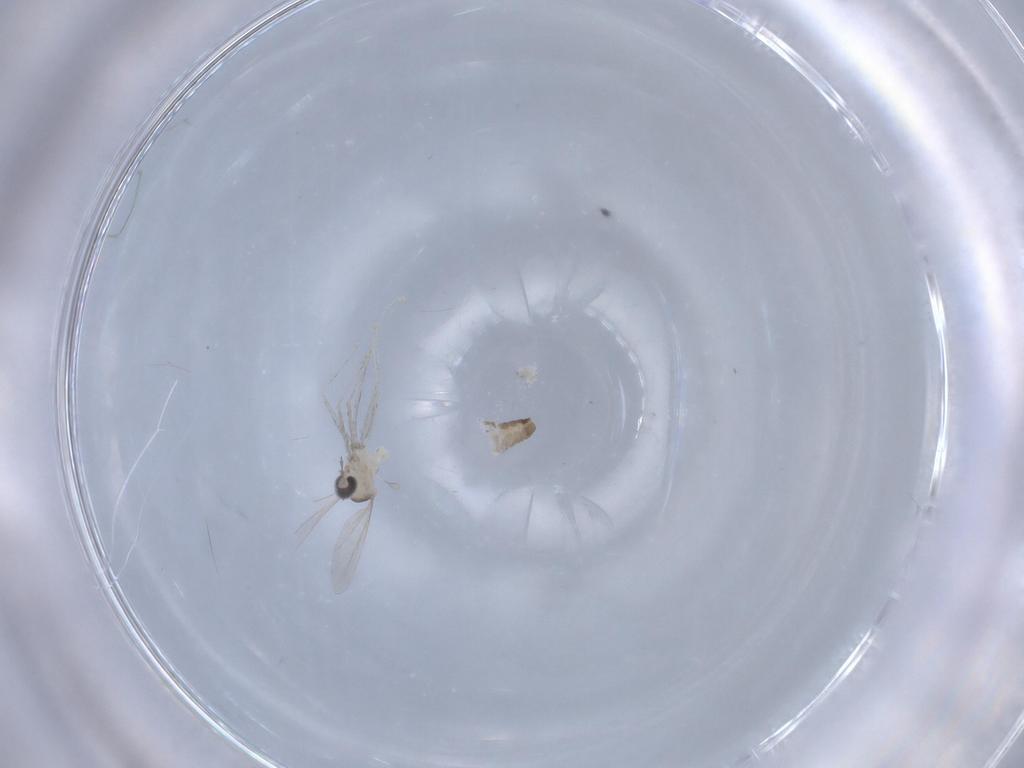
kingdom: Animalia
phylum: Arthropoda
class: Insecta
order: Diptera
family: Cecidomyiidae
